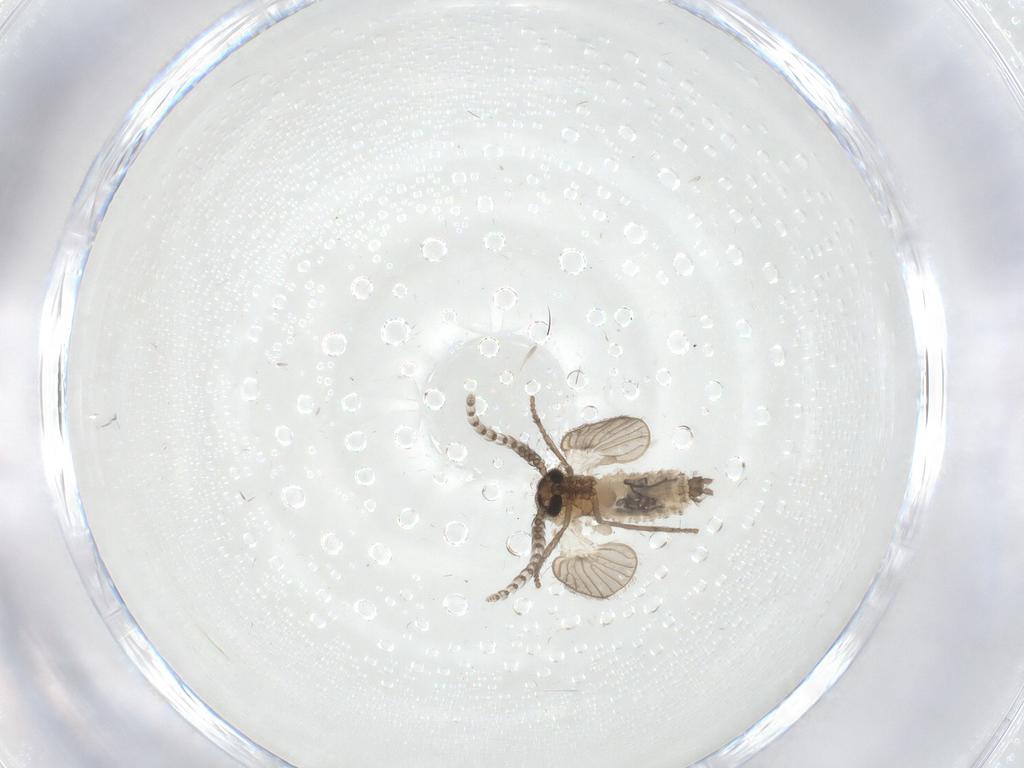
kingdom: Animalia
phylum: Arthropoda
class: Insecta
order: Diptera
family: Psychodidae
